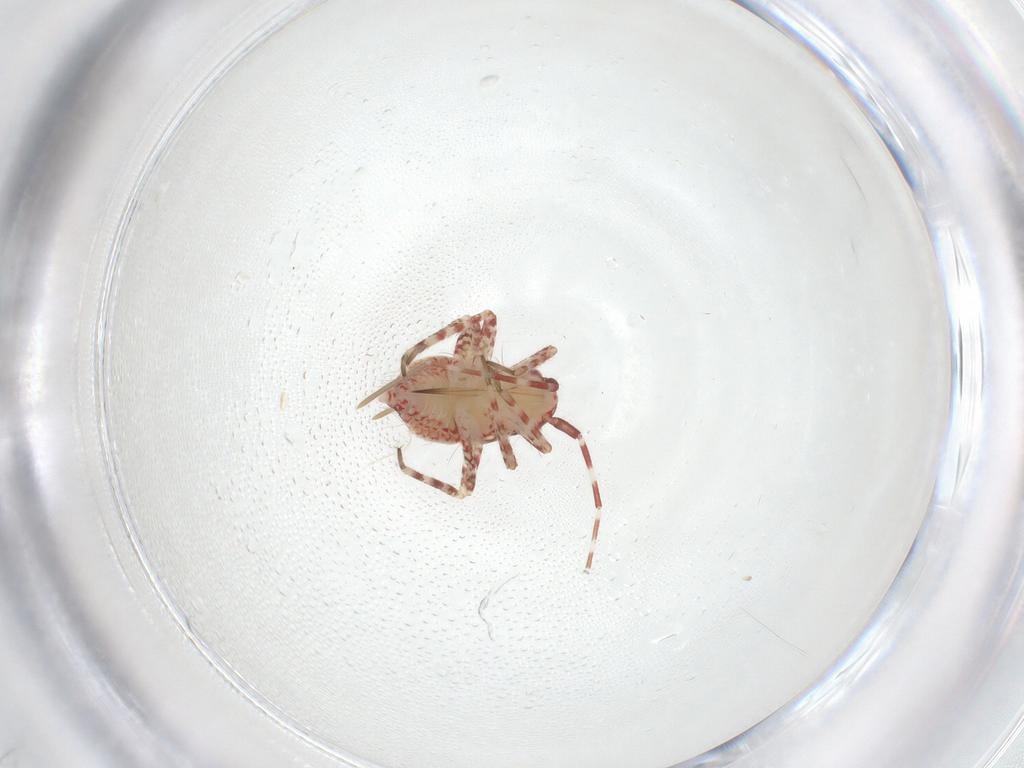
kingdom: Animalia
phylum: Arthropoda
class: Insecta
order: Hemiptera
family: Miridae
